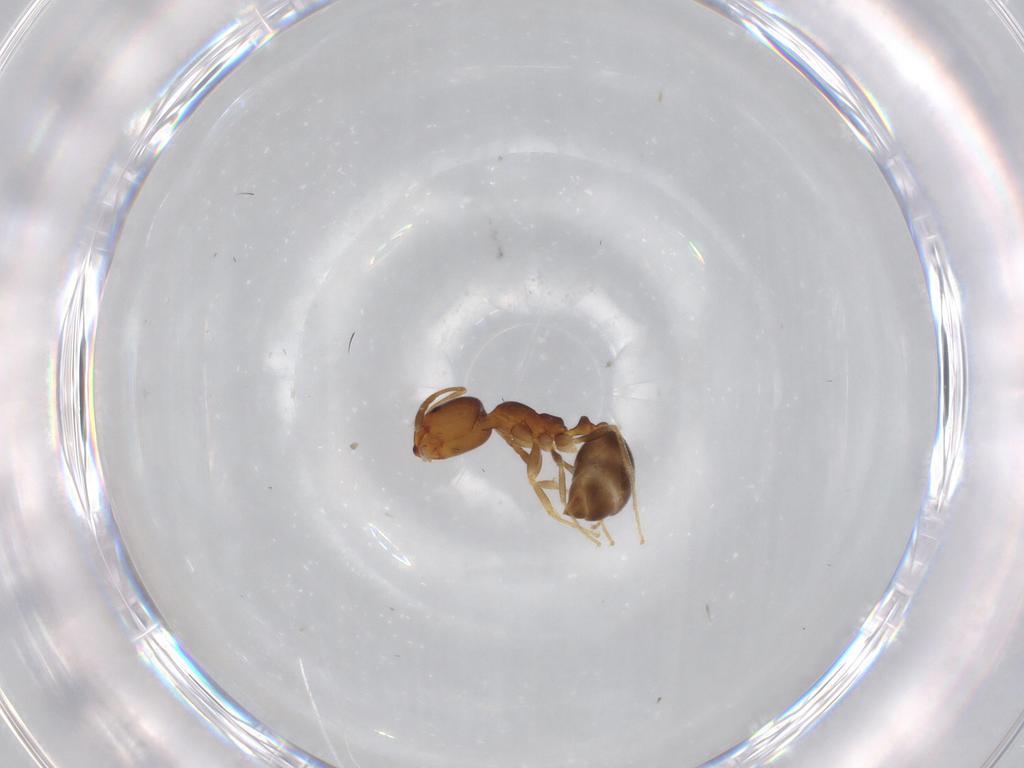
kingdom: Animalia
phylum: Arthropoda
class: Insecta
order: Hymenoptera
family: Formicidae
